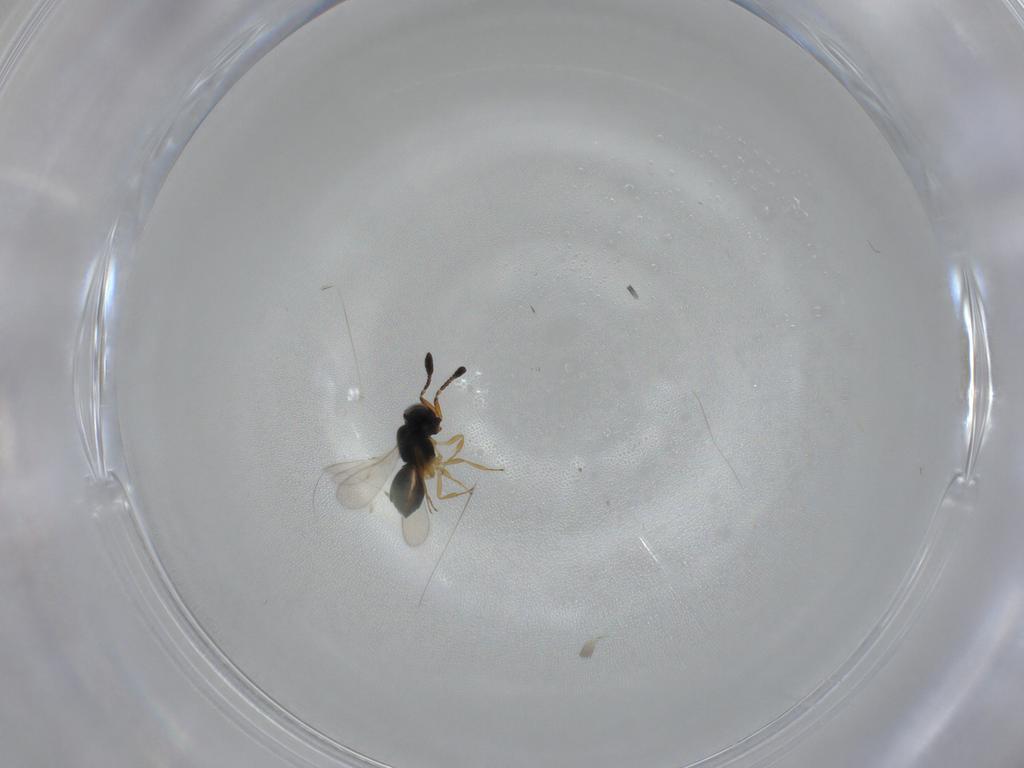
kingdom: Animalia
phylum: Arthropoda
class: Insecta
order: Hymenoptera
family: Scelionidae
